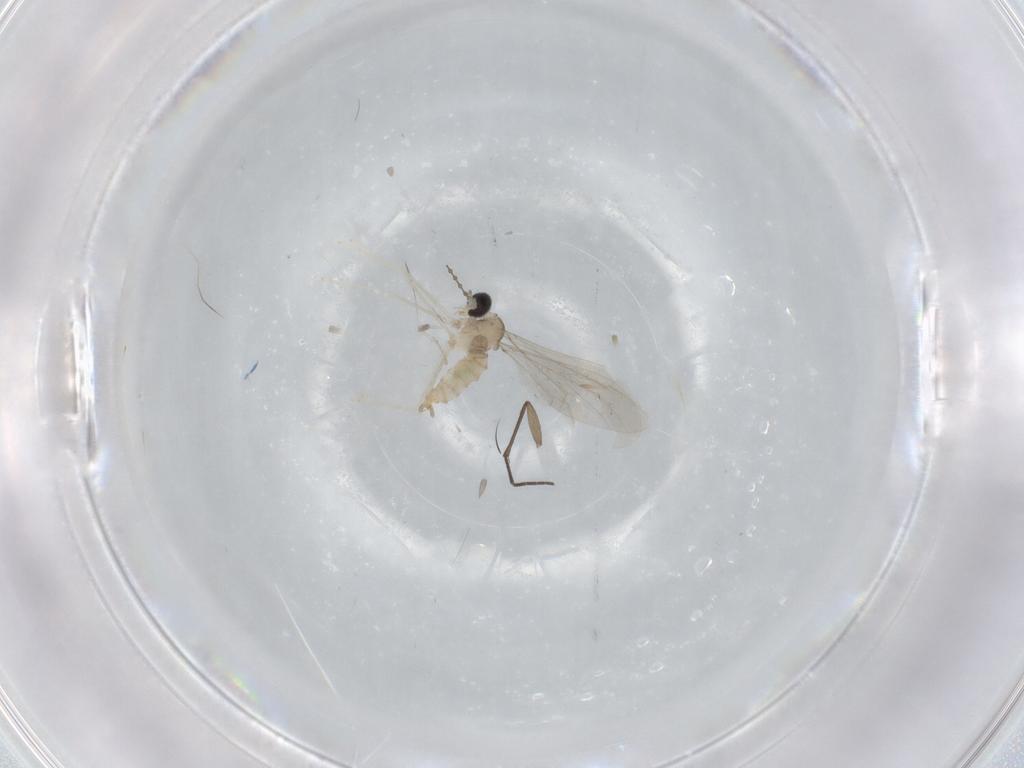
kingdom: Animalia
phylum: Arthropoda
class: Insecta
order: Diptera
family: Cecidomyiidae
